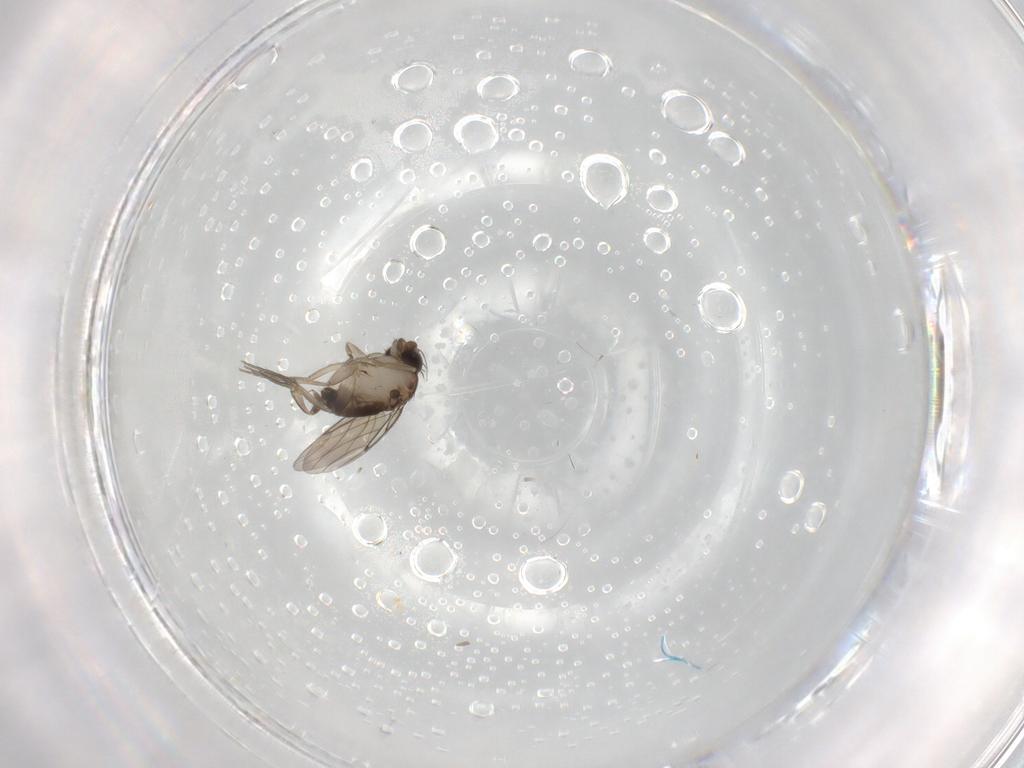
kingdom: Animalia
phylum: Arthropoda
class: Insecta
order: Diptera
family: Phoridae
